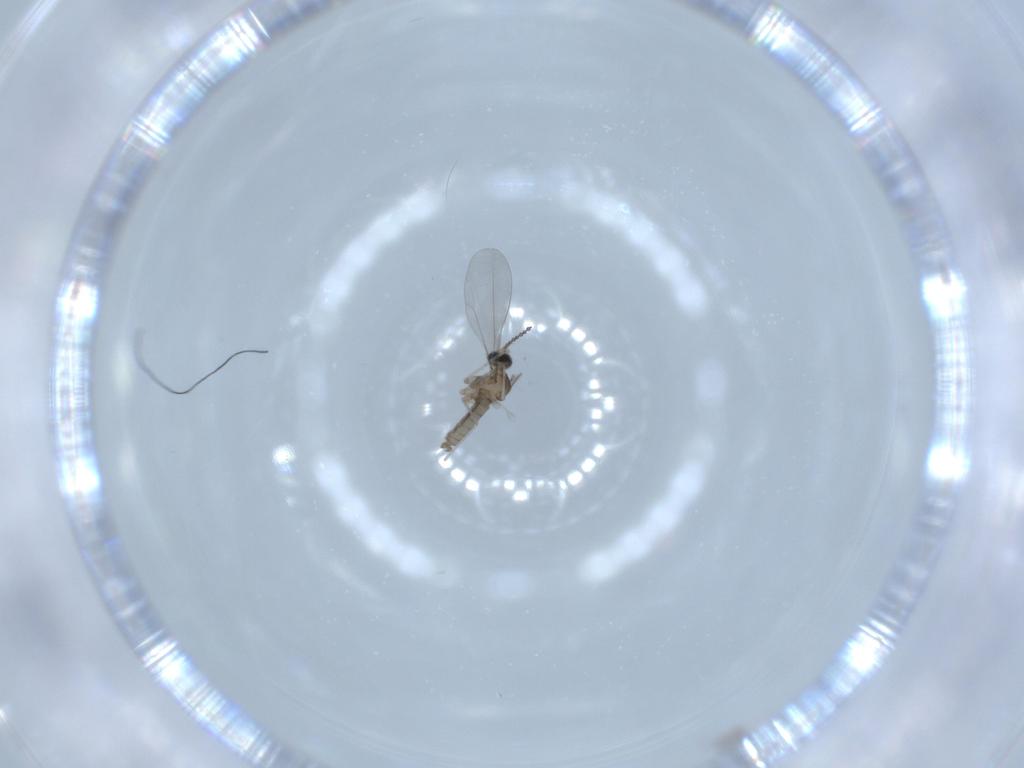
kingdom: Animalia
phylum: Arthropoda
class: Insecta
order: Diptera
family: Cecidomyiidae
